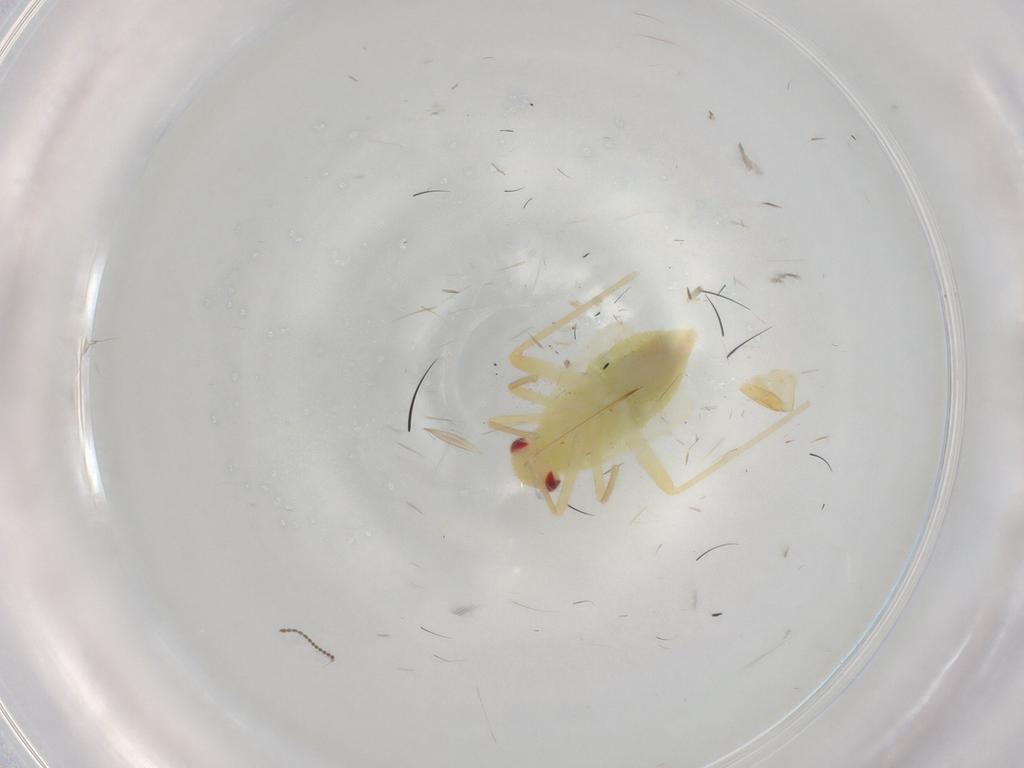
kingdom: Animalia
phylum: Arthropoda
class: Insecta
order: Hemiptera
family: Miridae
